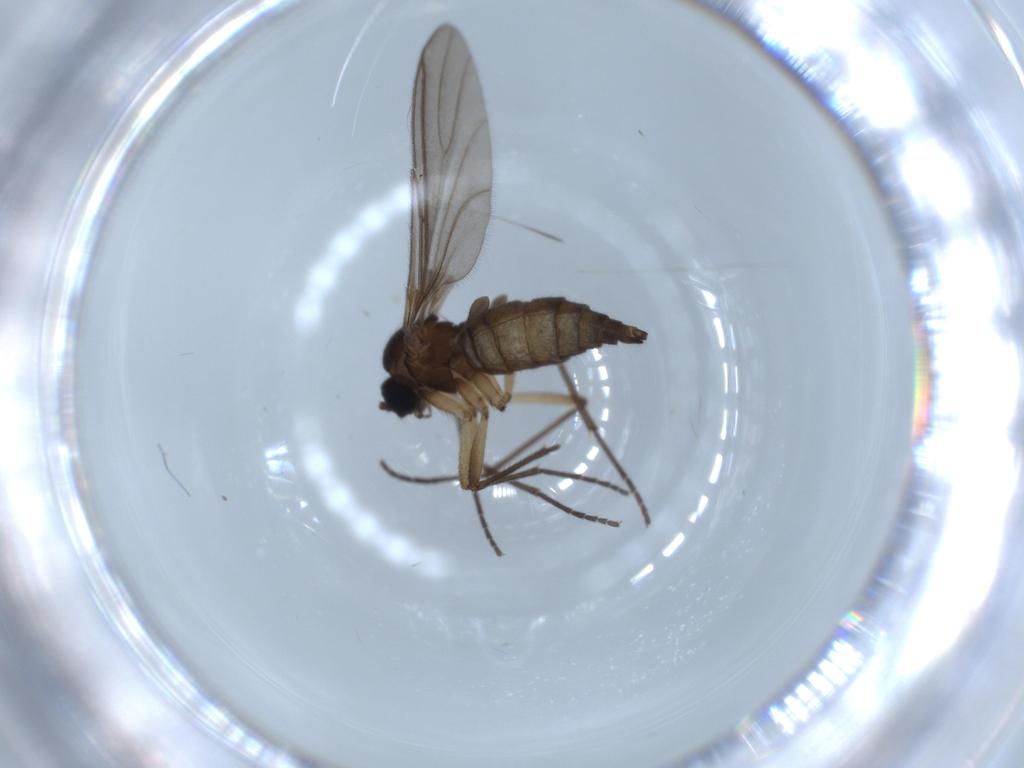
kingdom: Animalia
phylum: Arthropoda
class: Insecta
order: Diptera
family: Sciaridae
